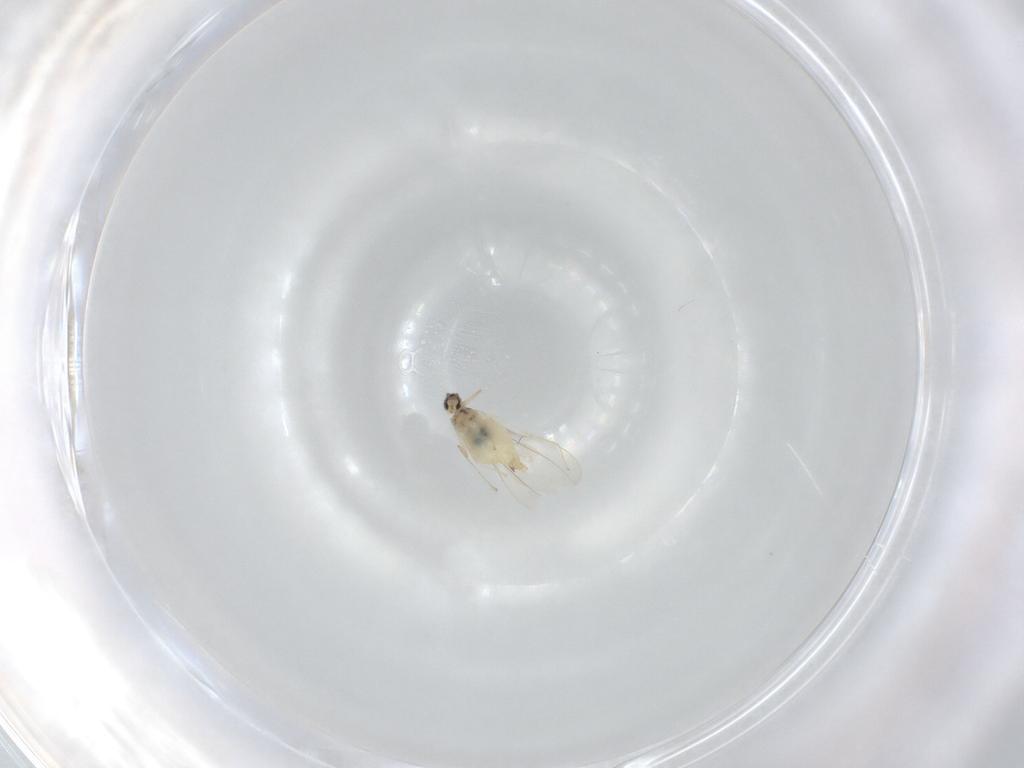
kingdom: Animalia
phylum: Arthropoda
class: Insecta
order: Diptera
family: Cecidomyiidae
